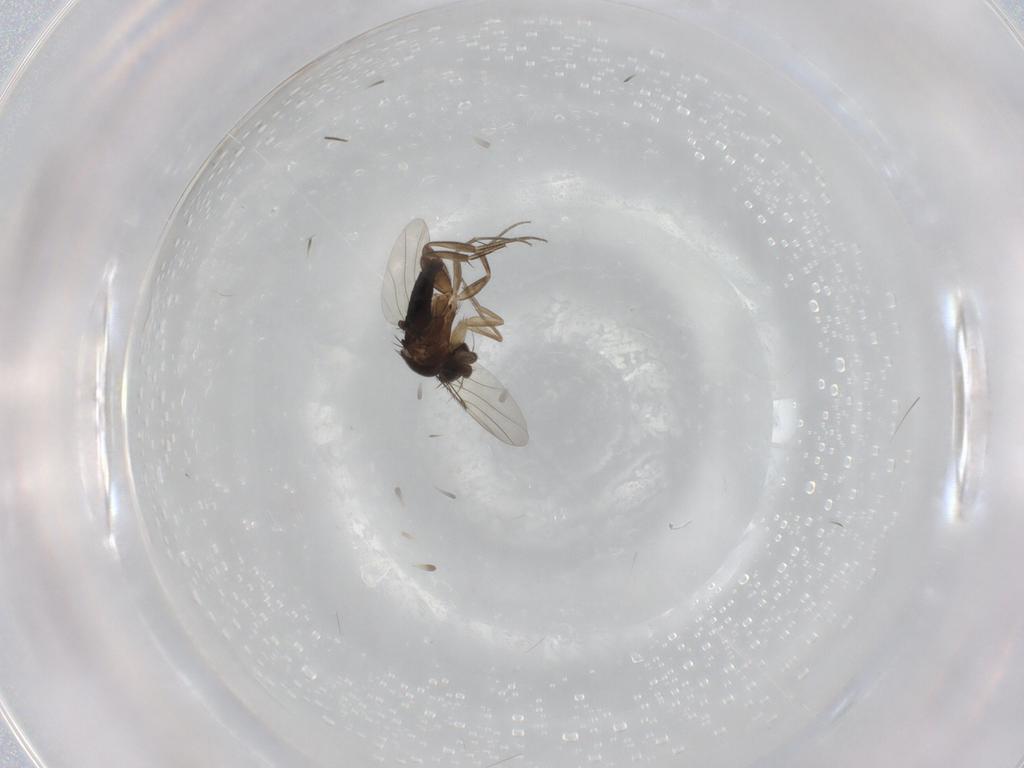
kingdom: Animalia
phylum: Arthropoda
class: Insecta
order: Diptera
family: Phoridae
